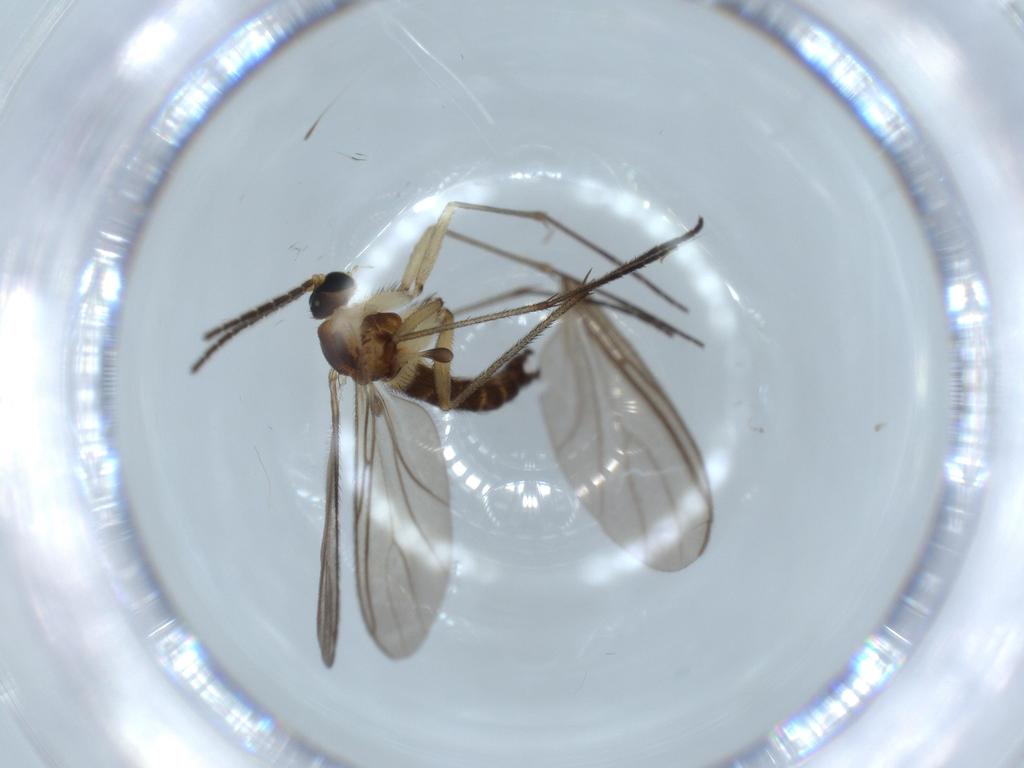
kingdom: Animalia
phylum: Arthropoda
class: Insecta
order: Diptera
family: Sciaridae
